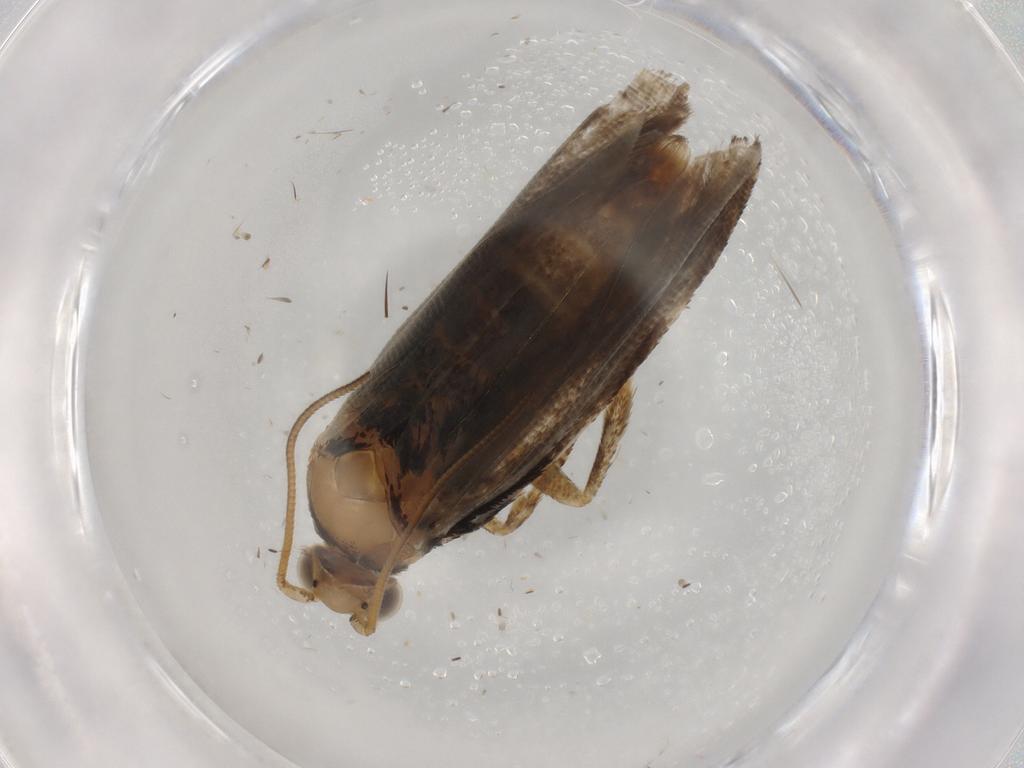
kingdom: Animalia
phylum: Arthropoda
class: Insecta
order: Lepidoptera
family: Tortricidae
